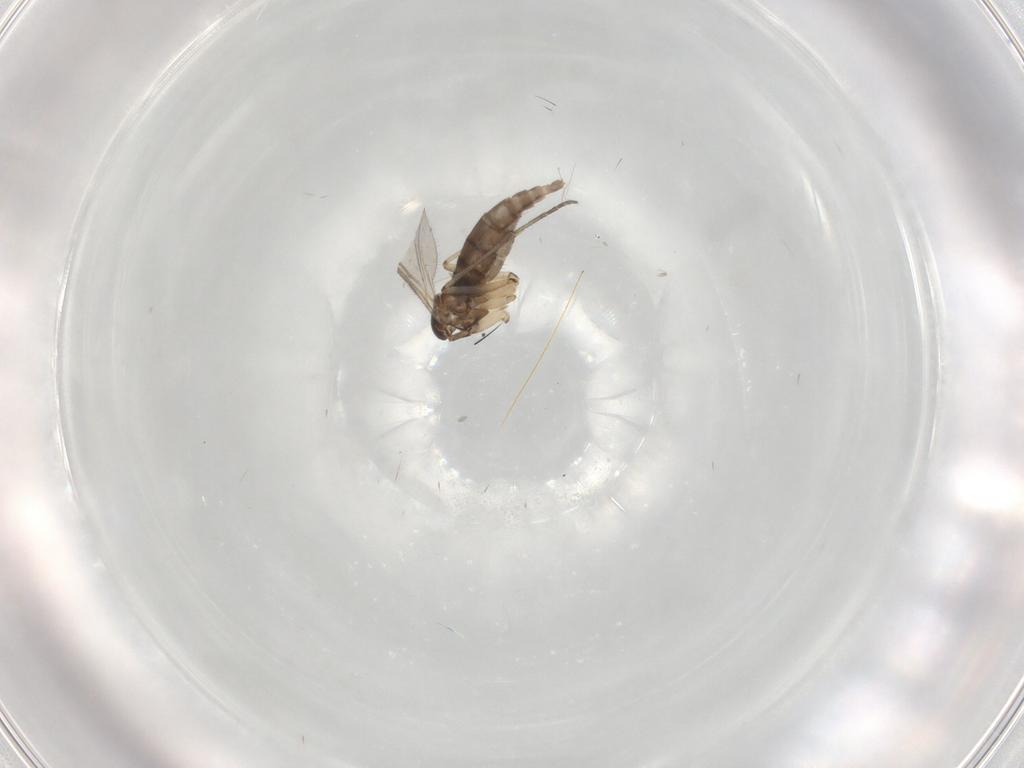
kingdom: Animalia
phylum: Arthropoda
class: Insecta
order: Diptera
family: Sciaridae
